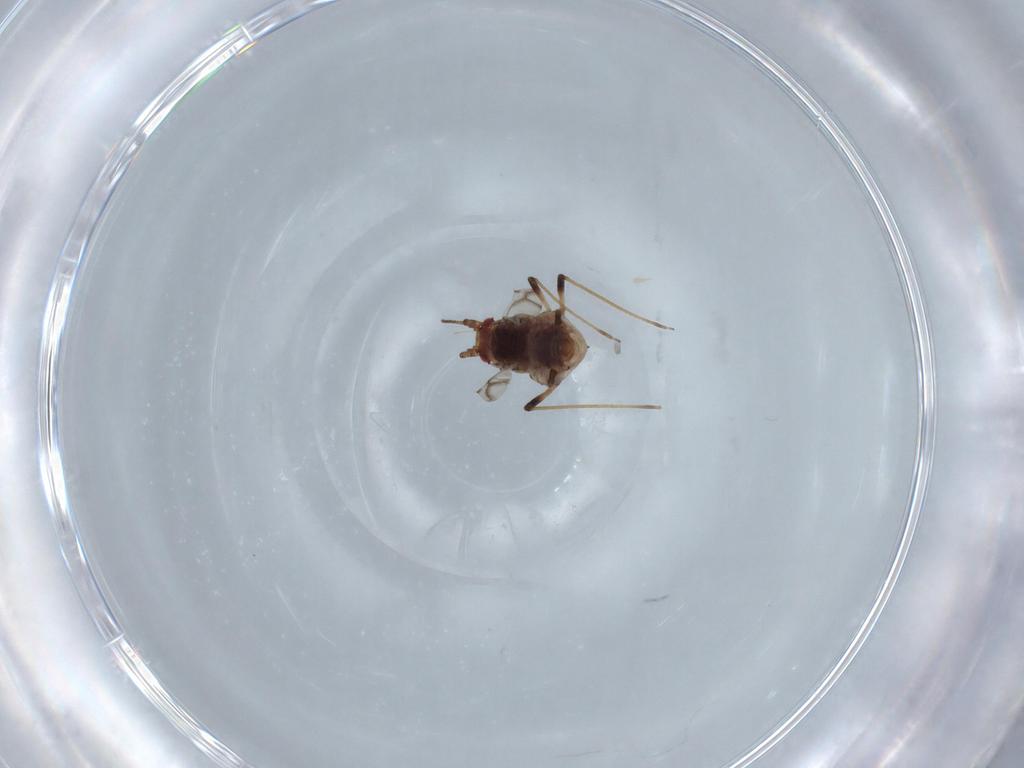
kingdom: Animalia
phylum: Arthropoda
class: Insecta
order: Hemiptera
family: Aphididae
